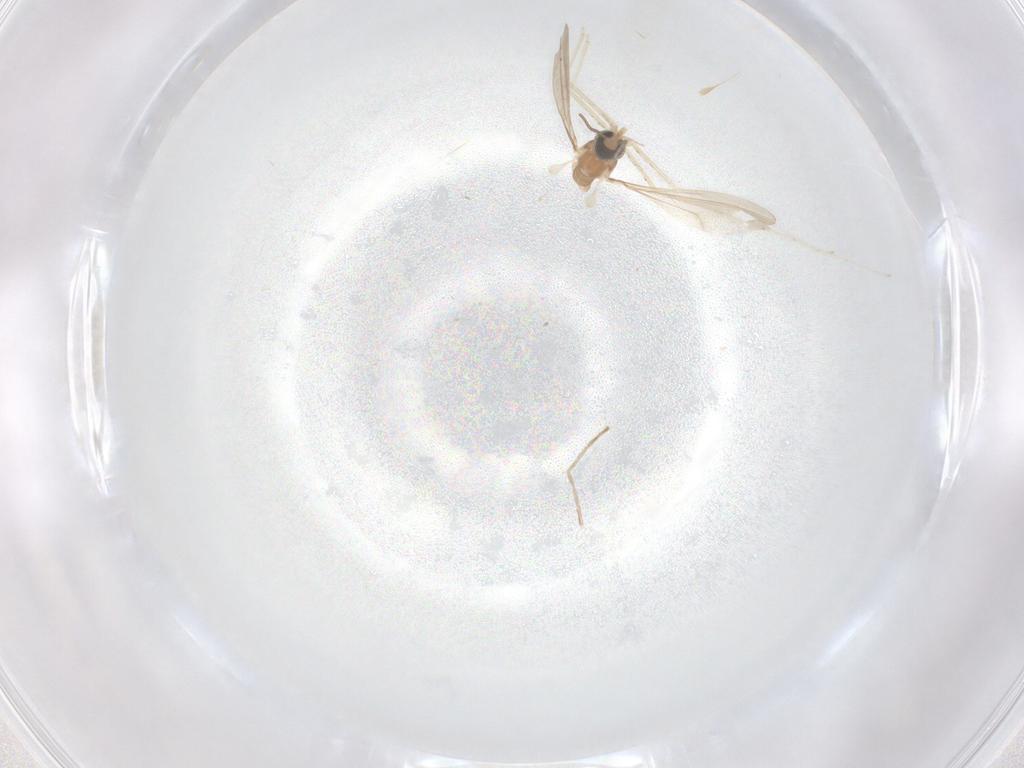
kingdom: Animalia
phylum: Arthropoda
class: Insecta
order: Diptera
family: Cecidomyiidae
